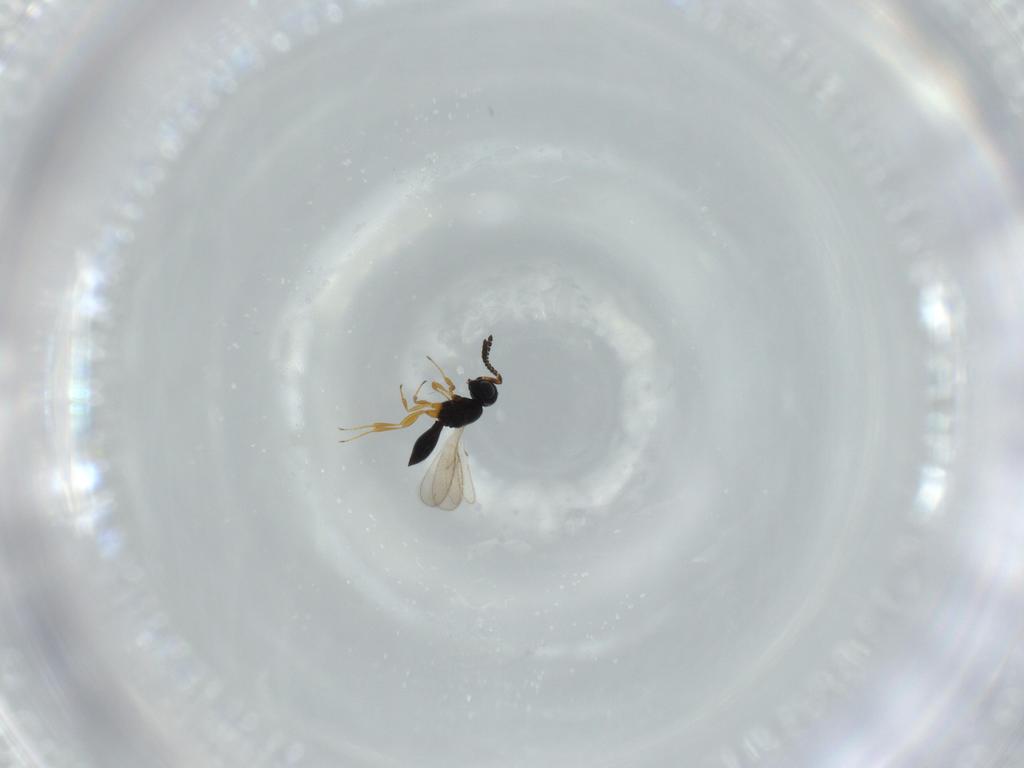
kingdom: Animalia
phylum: Arthropoda
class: Insecta
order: Hymenoptera
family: Scelionidae
